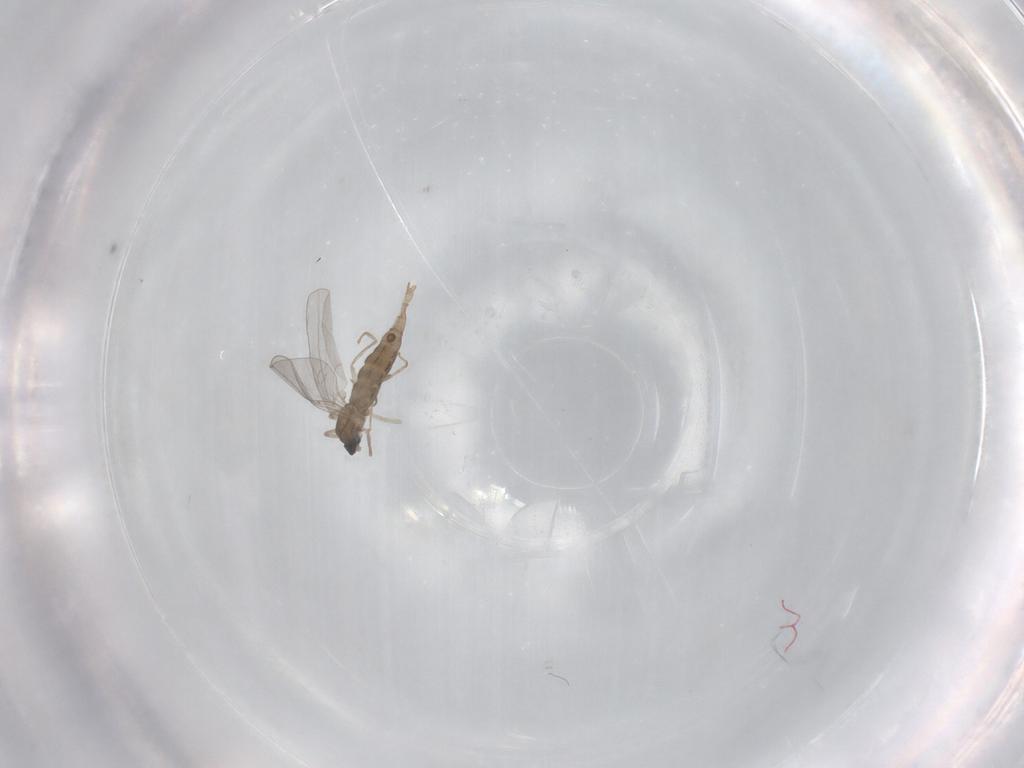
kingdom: Animalia
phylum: Arthropoda
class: Insecta
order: Diptera
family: Cecidomyiidae
